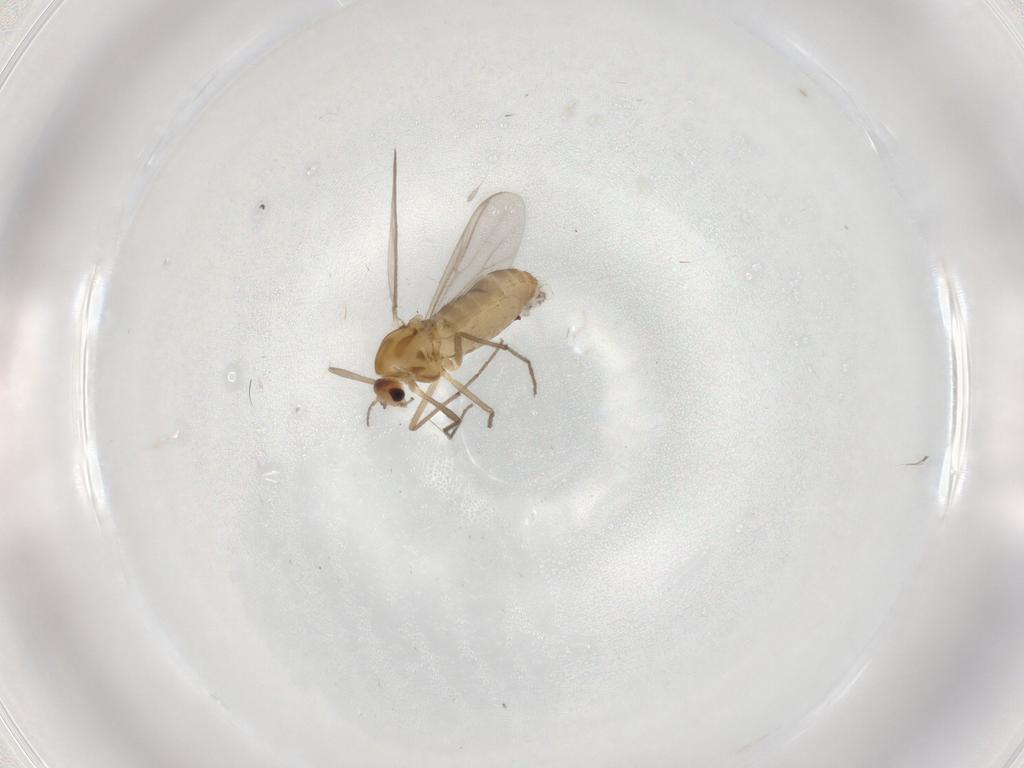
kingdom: Animalia
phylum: Arthropoda
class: Insecta
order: Diptera
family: Chironomidae
